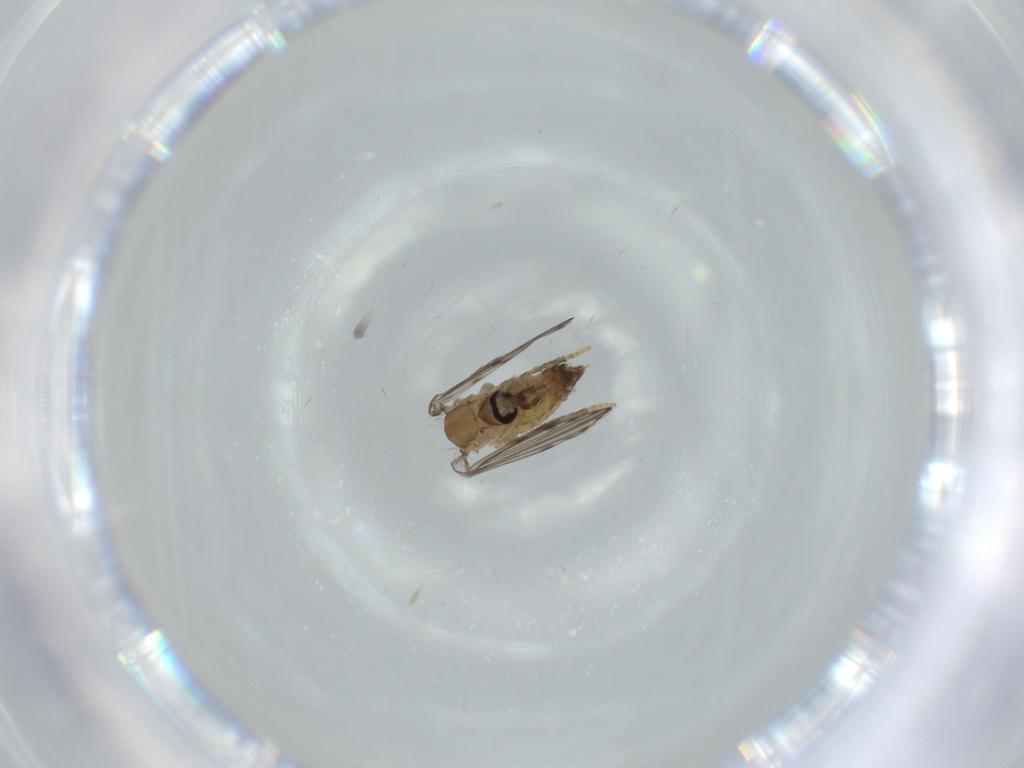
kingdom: Animalia
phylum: Arthropoda
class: Insecta
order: Diptera
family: Psychodidae
